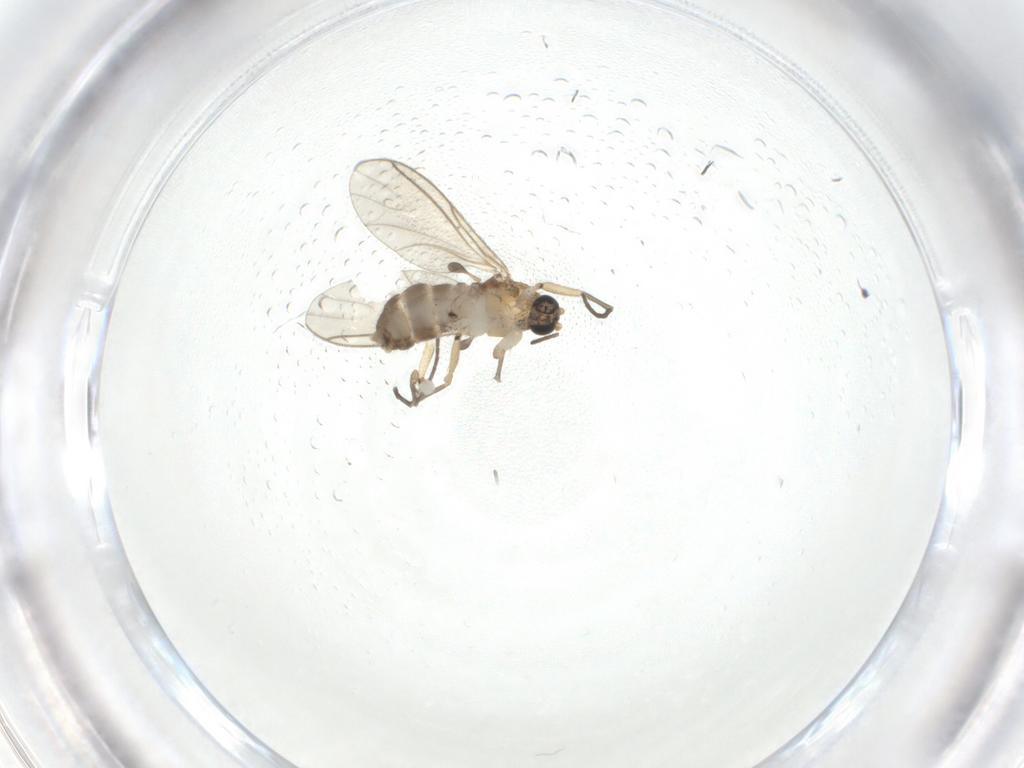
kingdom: Animalia
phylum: Arthropoda
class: Insecta
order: Diptera
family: Sciaridae
